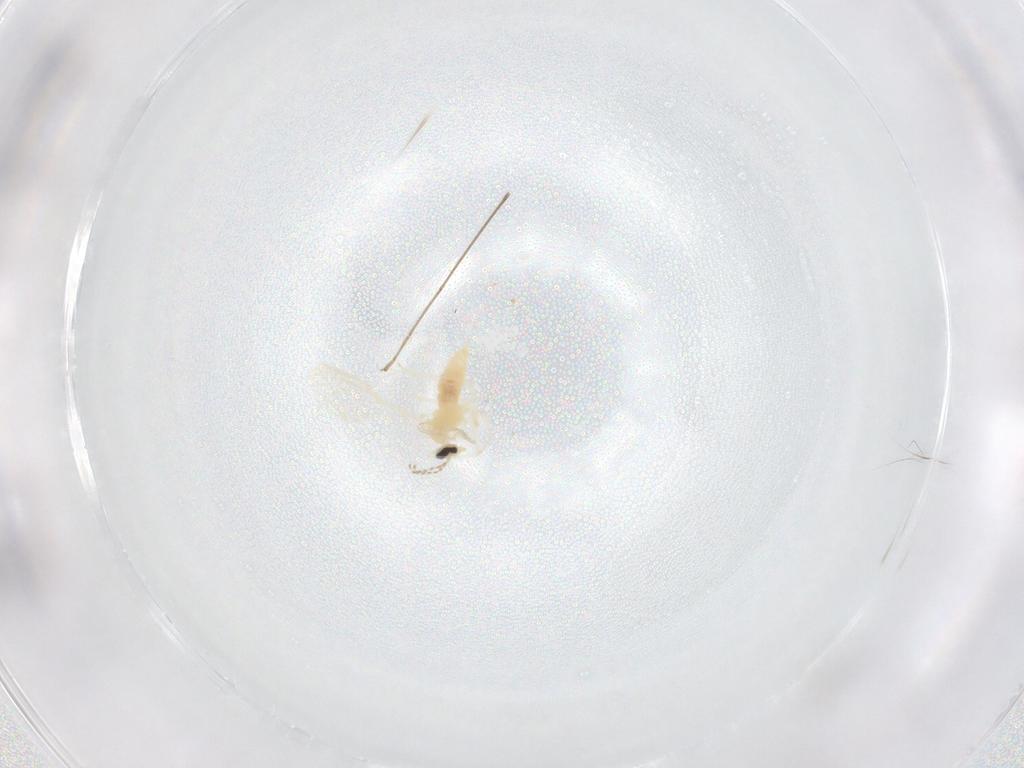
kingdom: Animalia
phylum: Arthropoda
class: Insecta
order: Diptera
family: Cecidomyiidae
